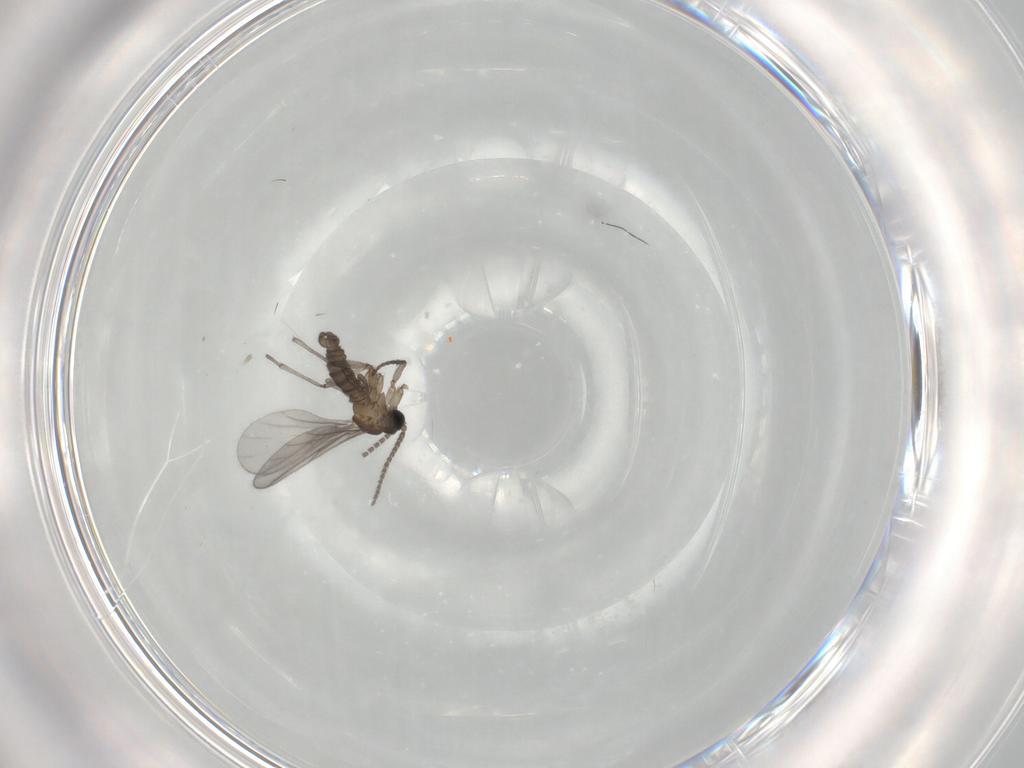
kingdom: Animalia
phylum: Arthropoda
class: Insecta
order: Diptera
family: Sciaridae
